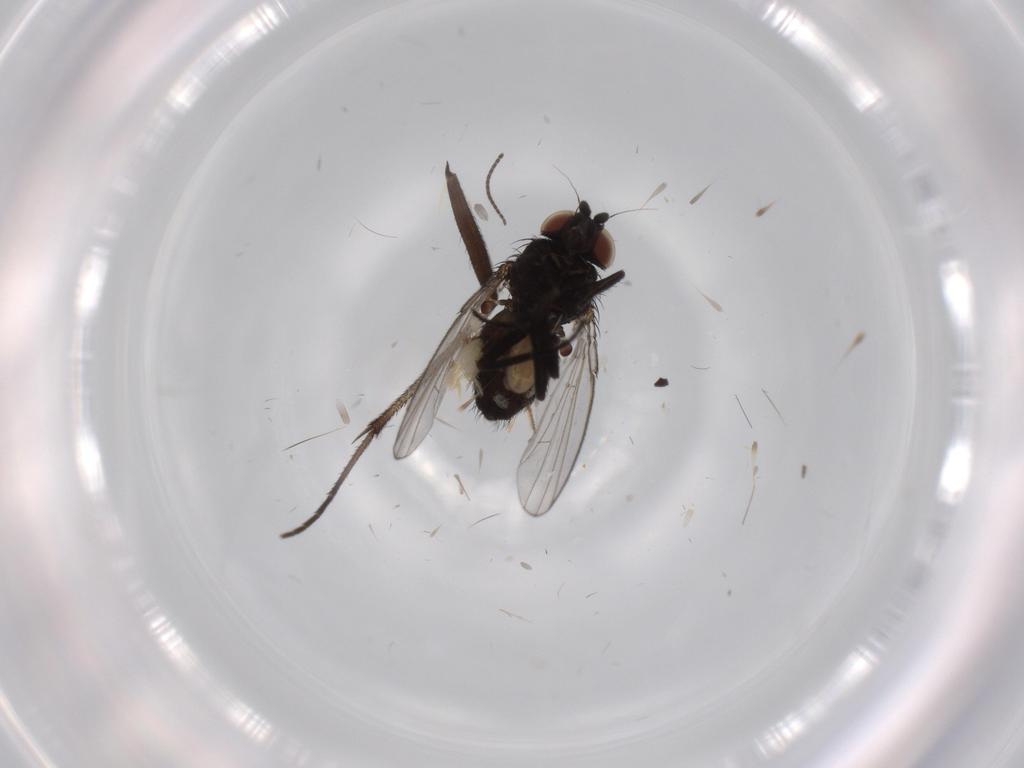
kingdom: Animalia
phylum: Arthropoda
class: Insecta
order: Diptera
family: Milichiidae
